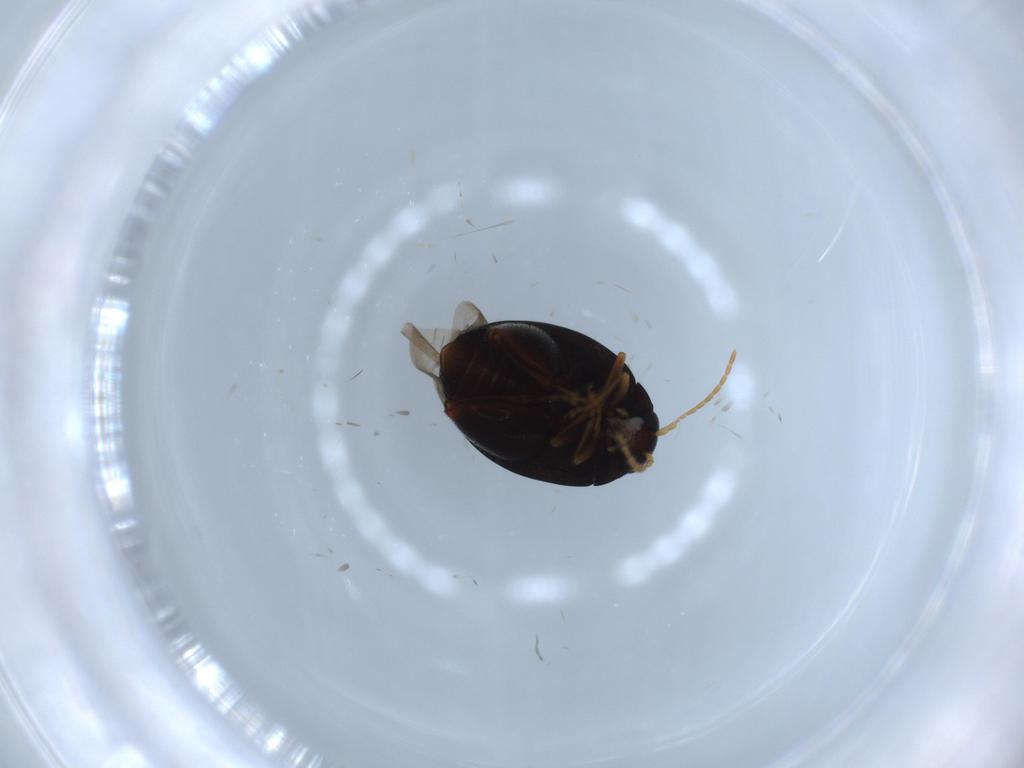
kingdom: Animalia
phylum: Arthropoda
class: Insecta
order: Coleoptera
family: Chrysomelidae
